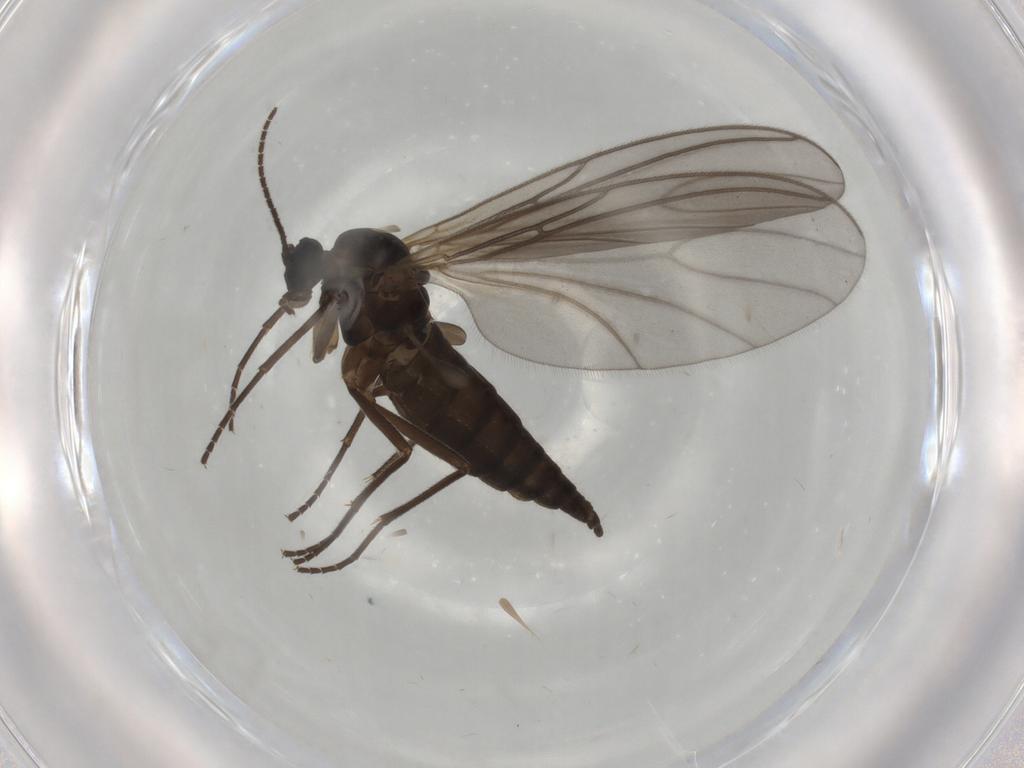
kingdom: Animalia
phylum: Arthropoda
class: Insecta
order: Diptera
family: Sciaridae
